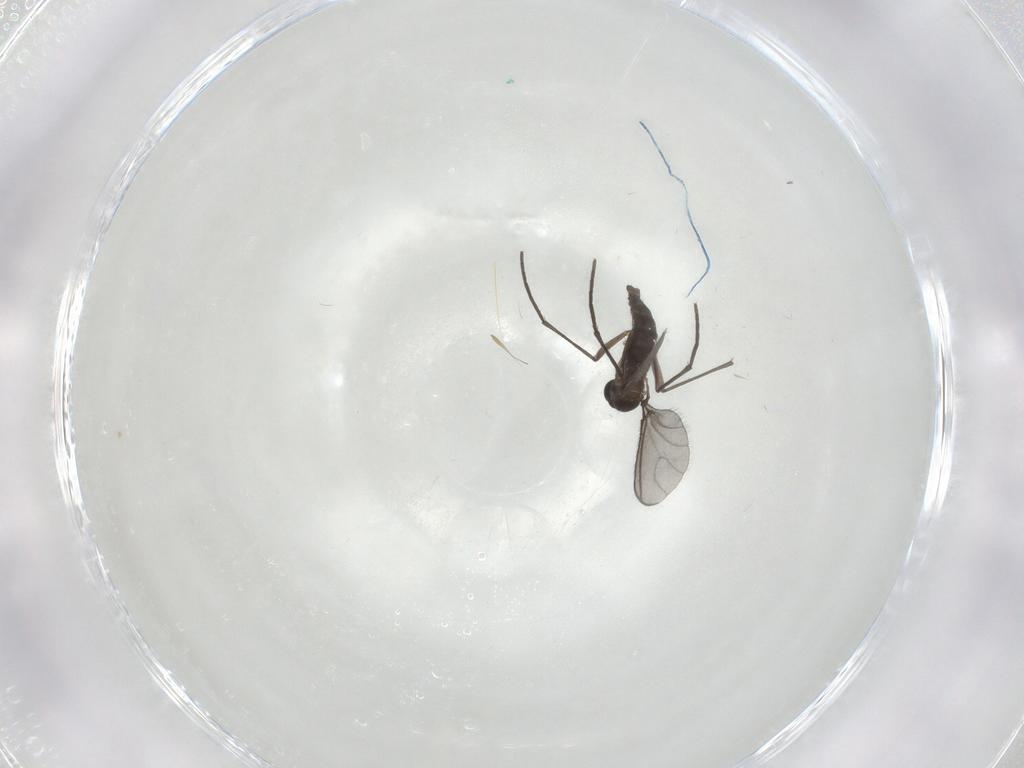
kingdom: Animalia
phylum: Arthropoda
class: Insecta
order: Diptera
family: Sciaridae
